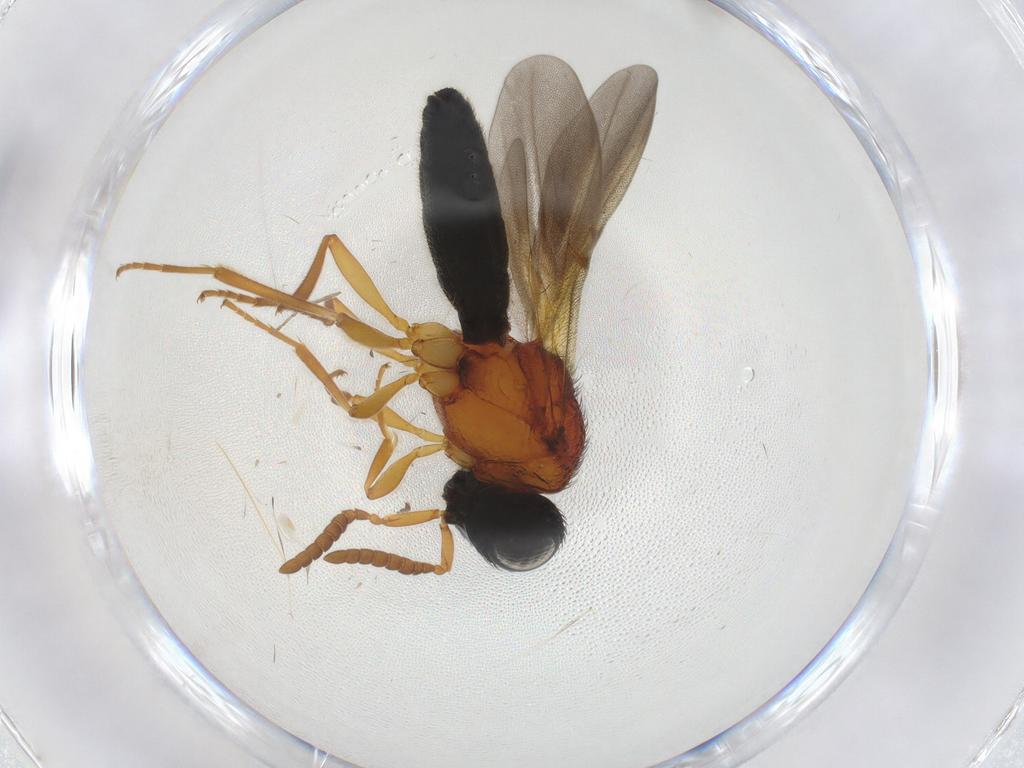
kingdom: Animalia
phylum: Arthropoda
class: Insecta
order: Hymenoptera
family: Scelionidae
